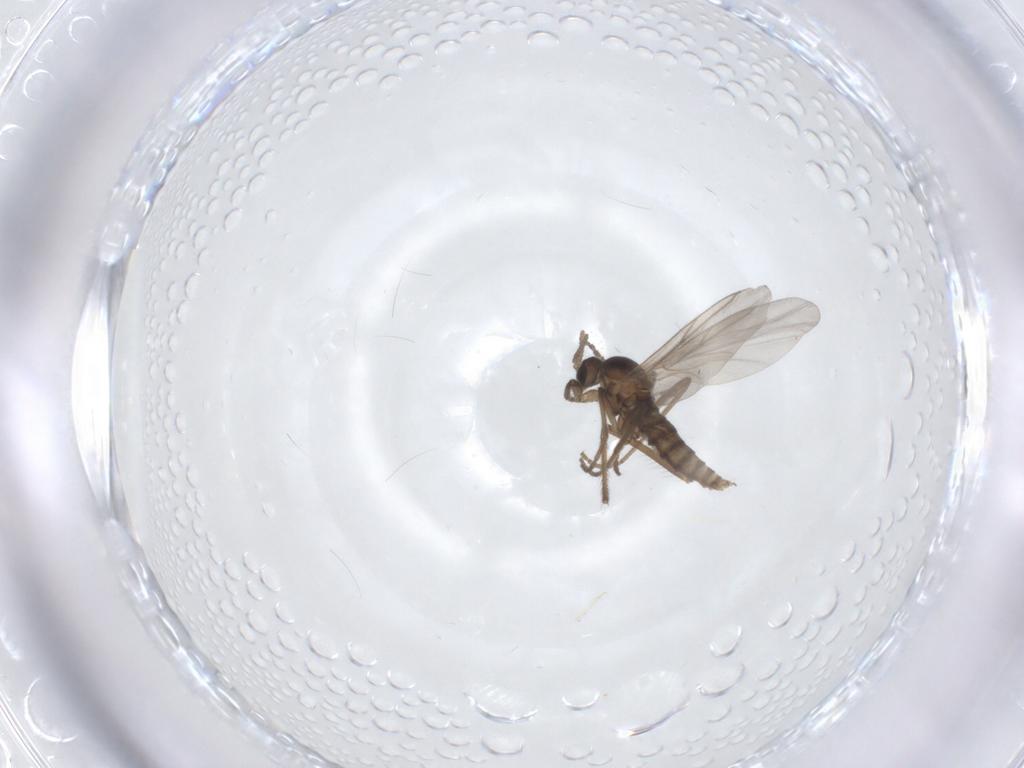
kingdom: Animalia
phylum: Arthropoda
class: Insecta
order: Diptera
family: Cecidomyiidae
